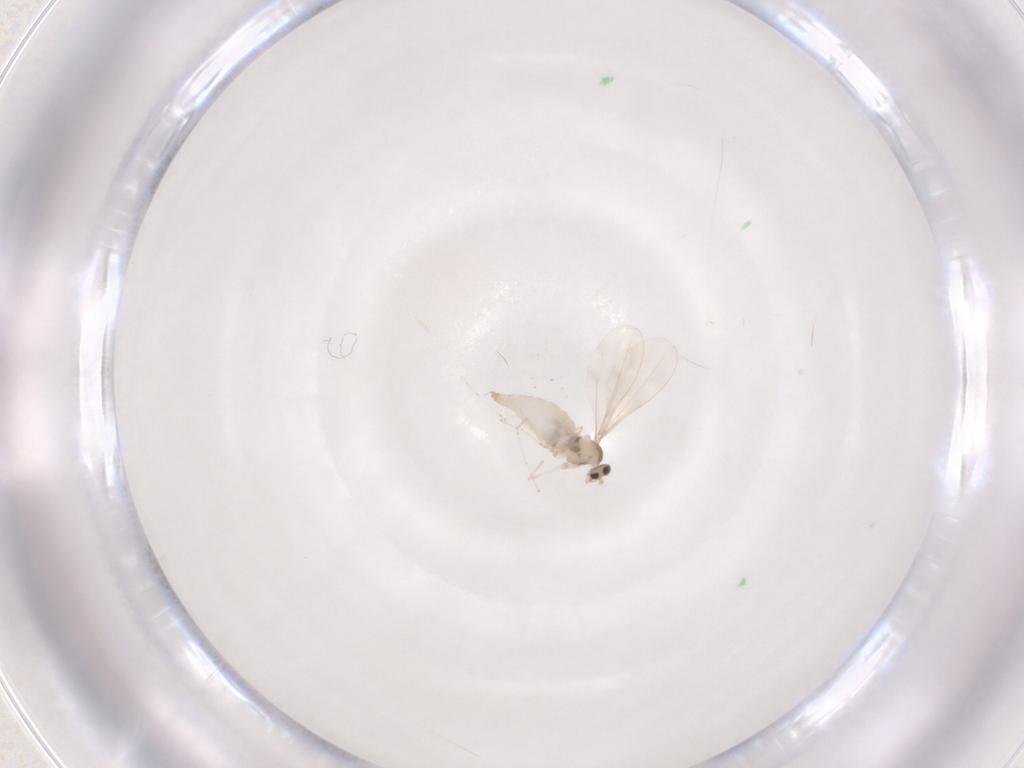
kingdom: Animalia
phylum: Arthropoda
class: Insecta
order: Diptera
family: Cecidomyiidae
